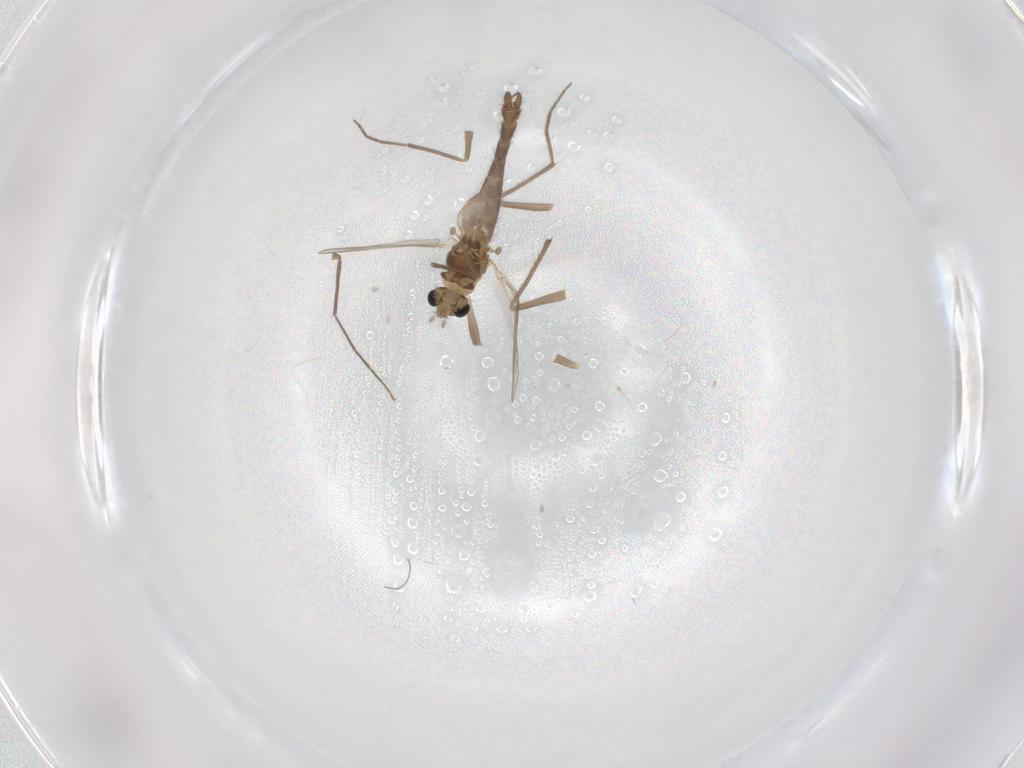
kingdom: Animalia
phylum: Arthropoda
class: Insecta
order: Diptera
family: Chironomidae
